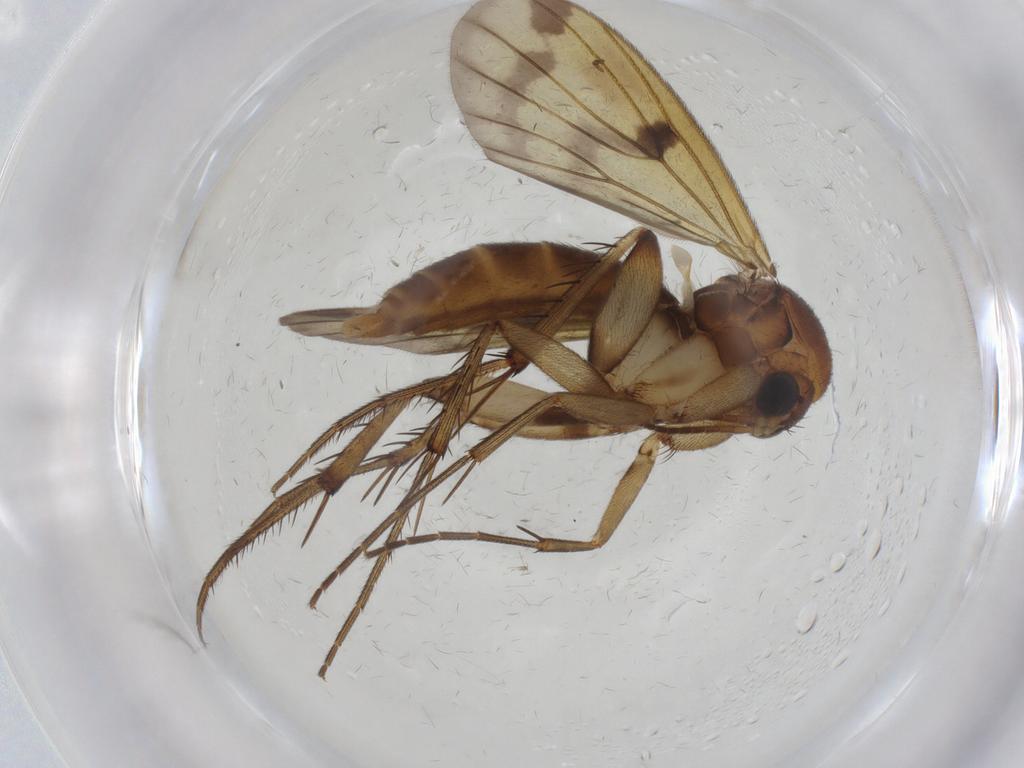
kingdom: Animalia
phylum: Arthropoda
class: Insecta
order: Diptera
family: Mycetophilidae
